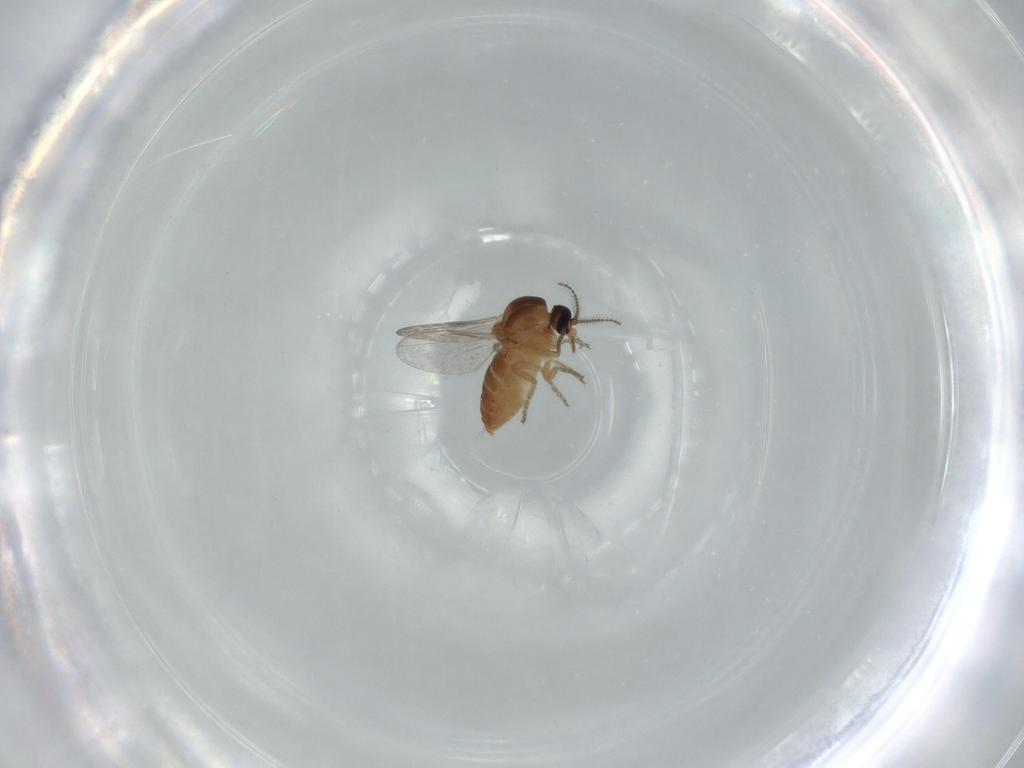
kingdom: Animalia
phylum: Arthropoda
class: Insecta
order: Diptera
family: Ceratopogonidae
